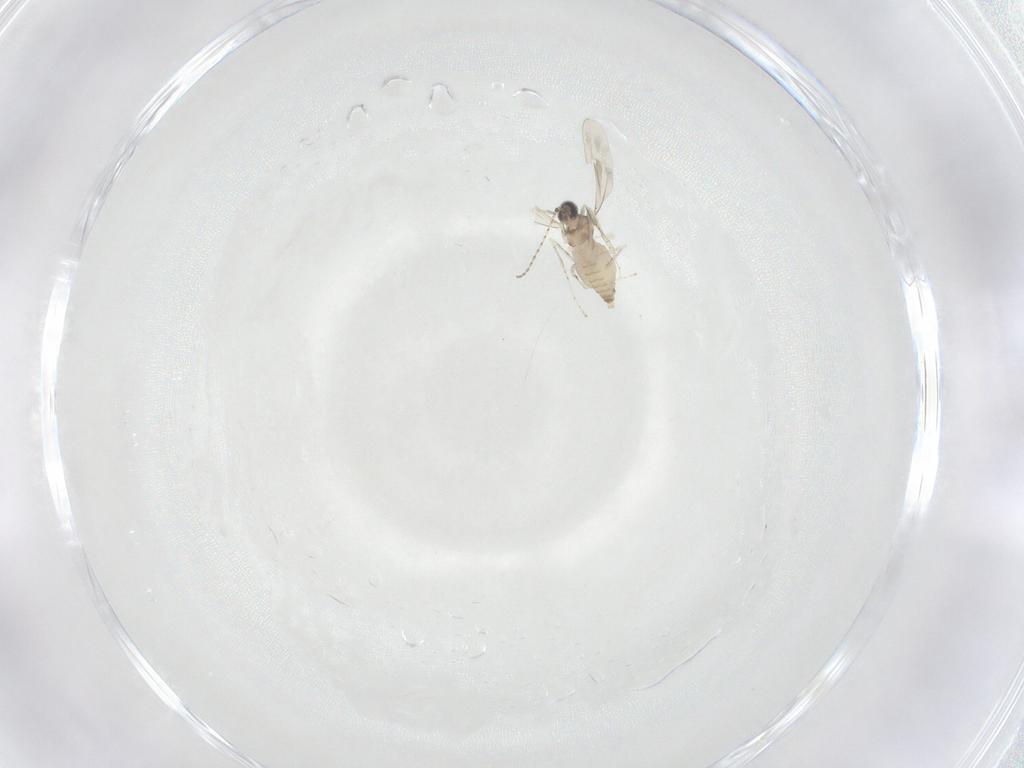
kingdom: Animalia
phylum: Arthropoda
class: Insecta
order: Diptera
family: Cecidomyiidae
